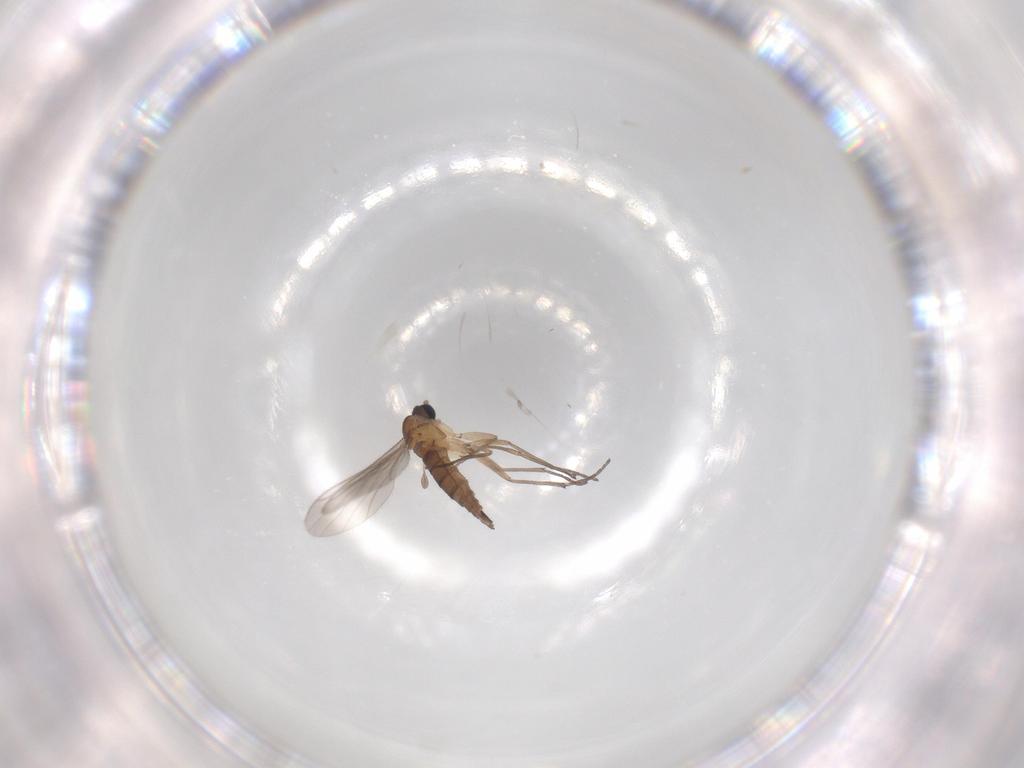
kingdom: Animalia
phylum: Arthropoda
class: Insecta
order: Diptera
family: Sciaridae
